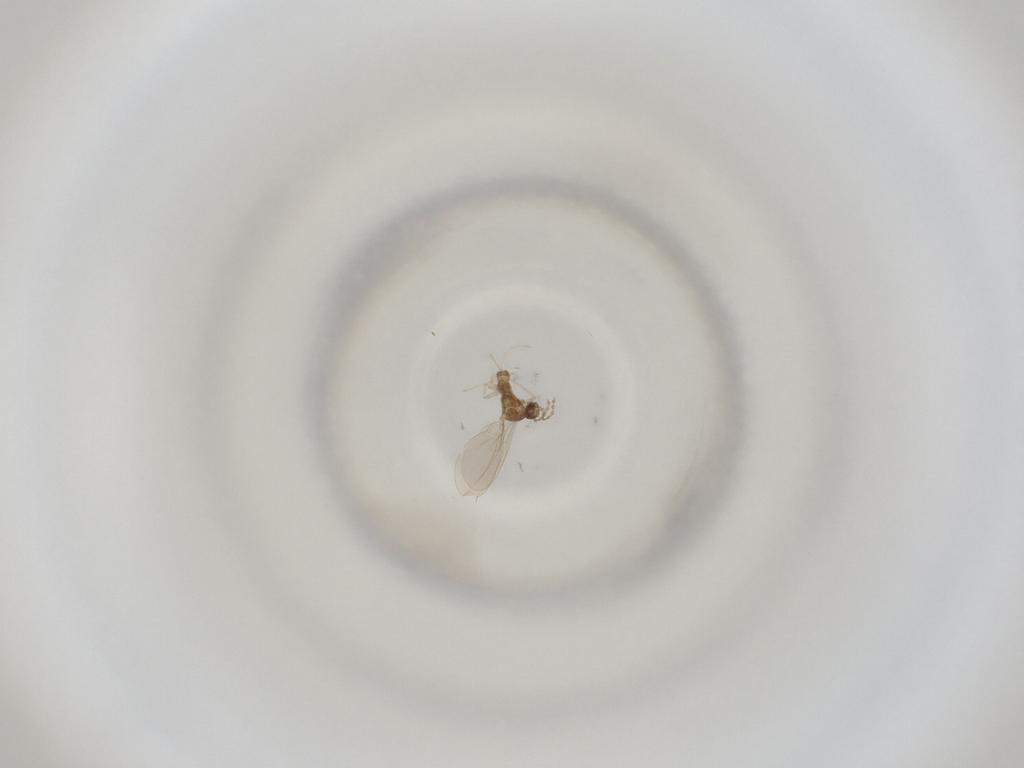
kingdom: Animalia
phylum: Arthropoda
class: Insecta
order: Diptera
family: Cecidomyiidae
